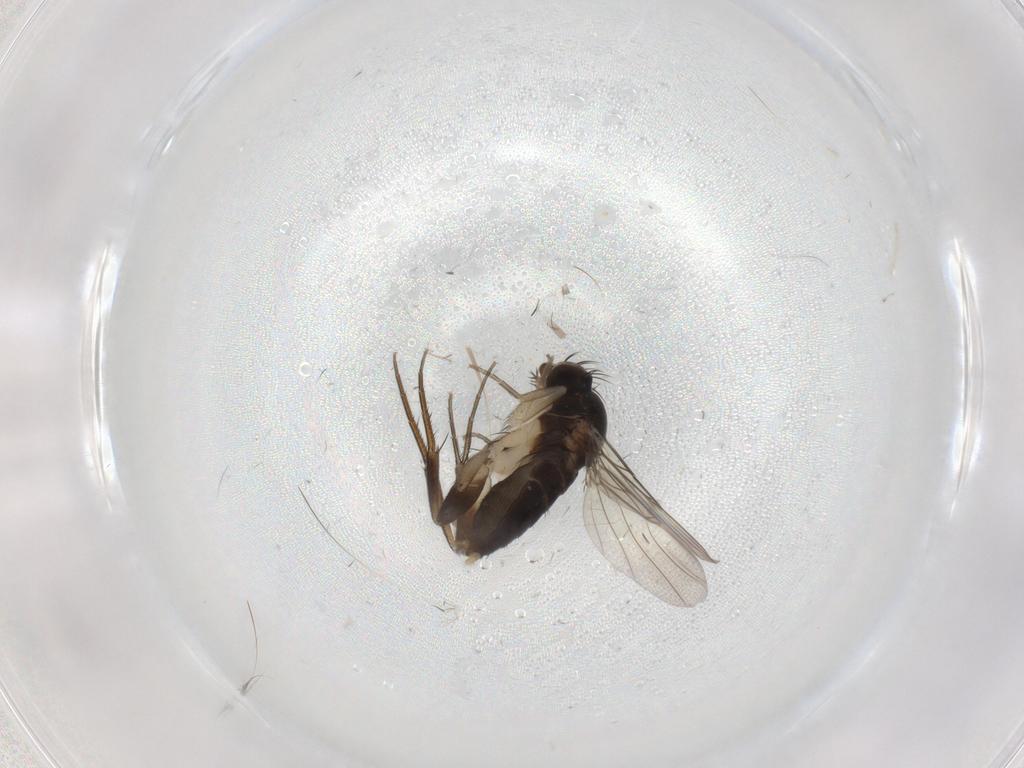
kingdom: Animalia
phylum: Arthropoda
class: Insecta
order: Diptera
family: Phoridae
